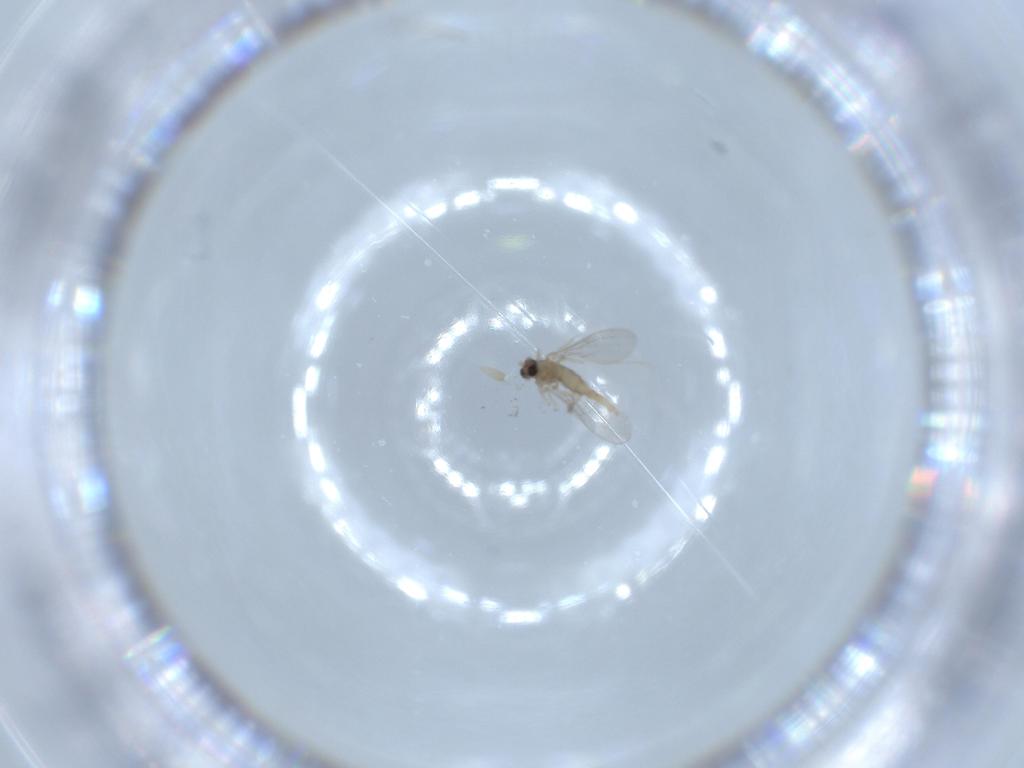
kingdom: Animalia
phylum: Arthropoda
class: Insecta
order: Diptera
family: Cecidomyiidae
